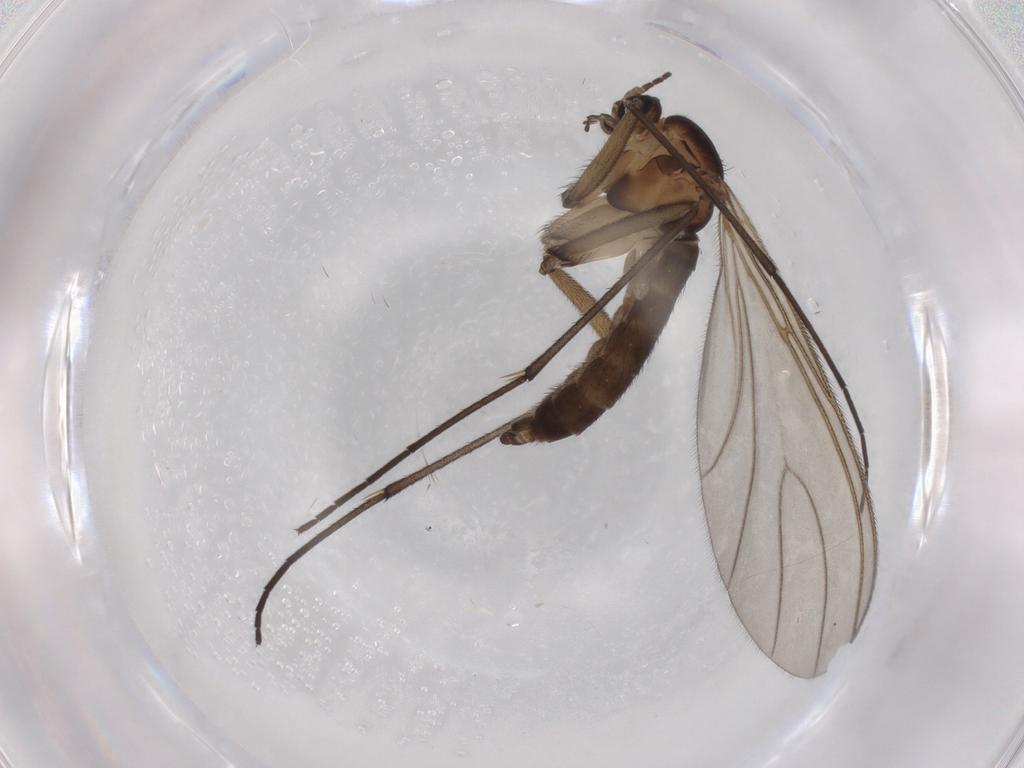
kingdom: Animalia
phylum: Arthropoda
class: Insecta
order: Diptera
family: Sciaridae
